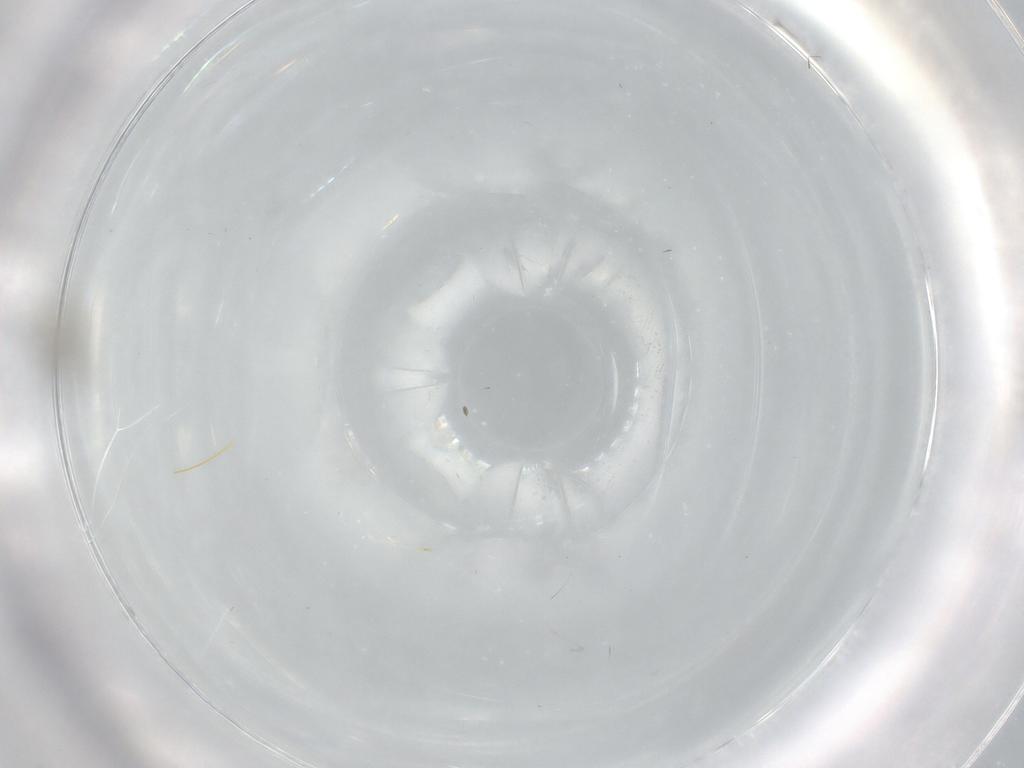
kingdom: Animalia
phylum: Arthropoda
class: Insecta
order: Diptera
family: Cecidomyiidae
